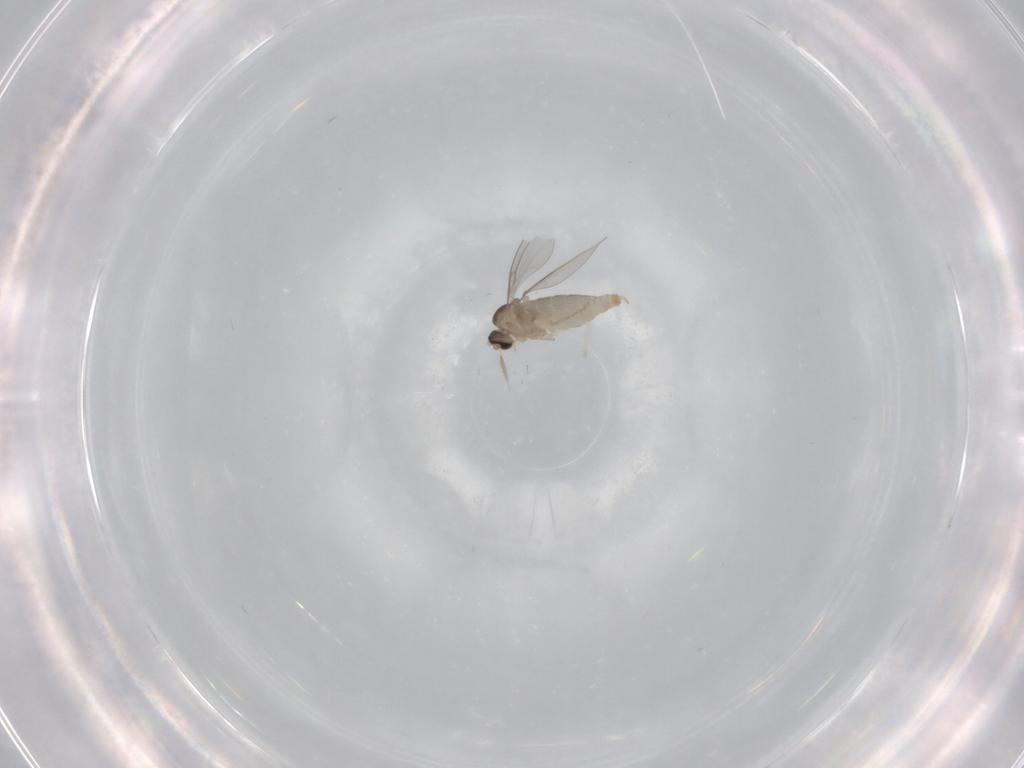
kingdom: Animalia
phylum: Arthropoda
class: Insecta
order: Diptera
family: Cecidomyiidae
